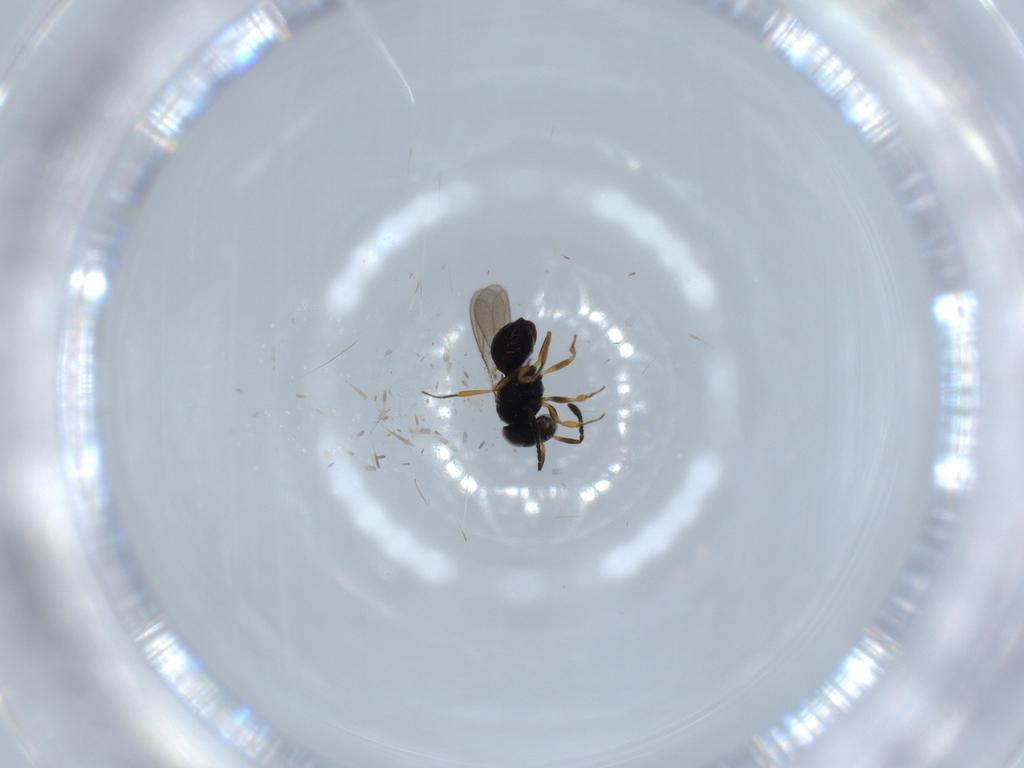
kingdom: Animalia
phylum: Arthropoda
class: Insecta
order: Hymenoptera
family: Scelionidae
